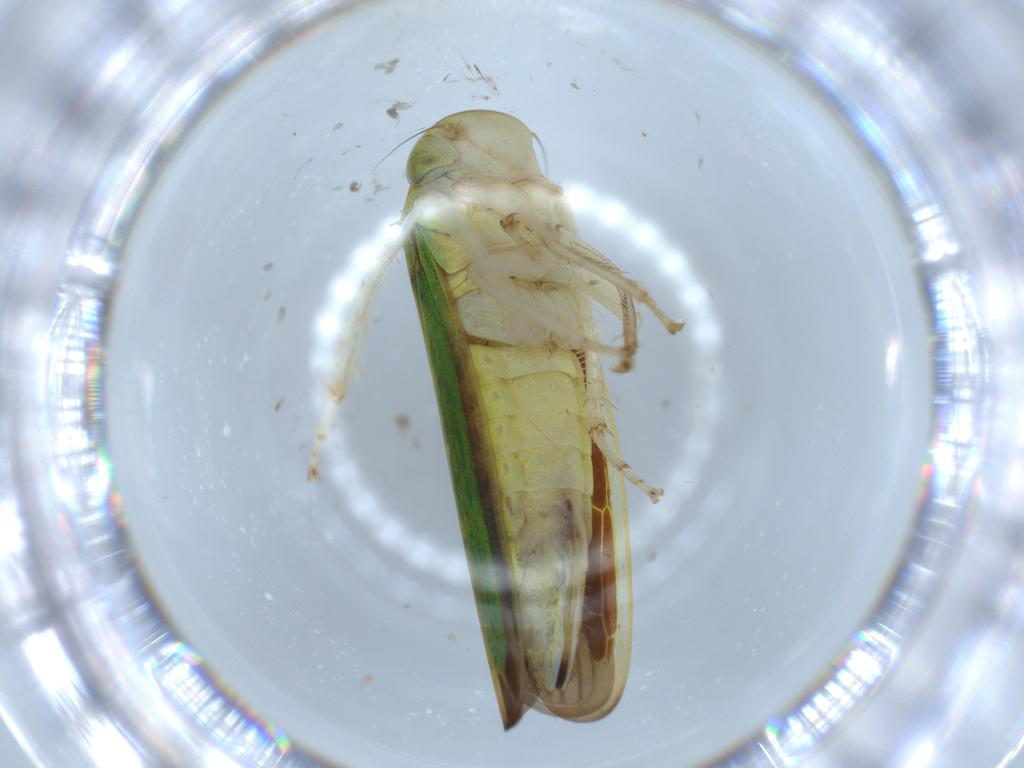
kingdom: Animalia
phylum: Arthropoda
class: Insecta
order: Hemiptera
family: Cicadellidae
